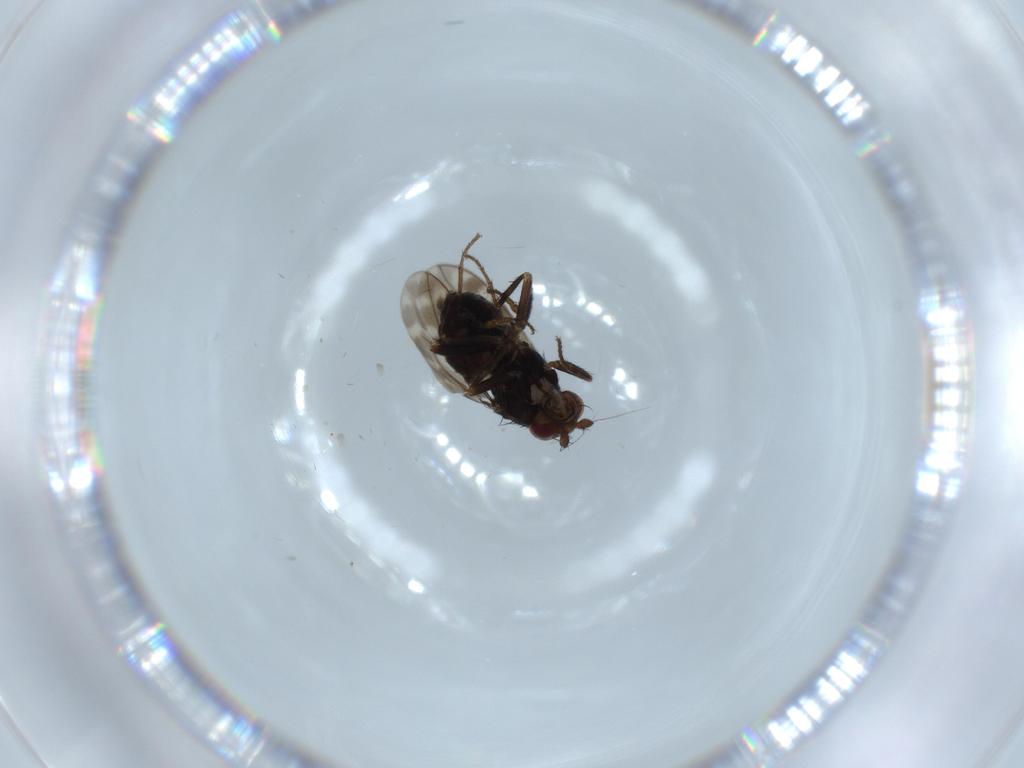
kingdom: Animalia
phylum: Arthropoda
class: Insecta
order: Diptera
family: Sphaeroceridae
